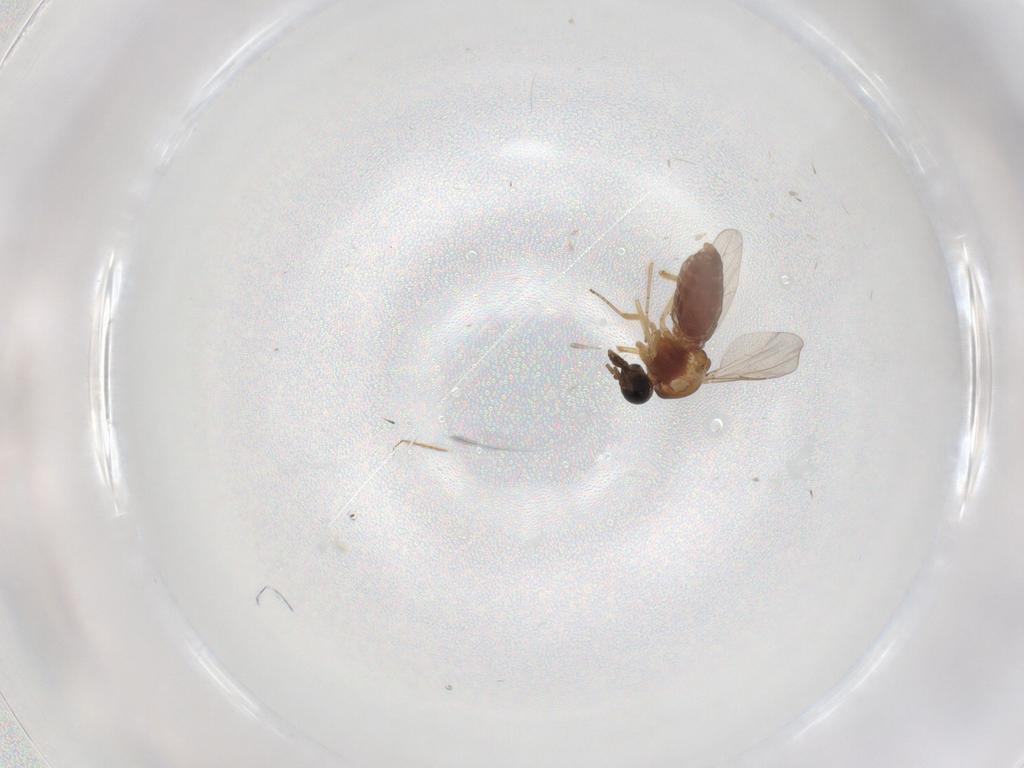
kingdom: Animalia
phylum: Arthropoda
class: Insecta
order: Diptera
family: Ceratopogonidae
